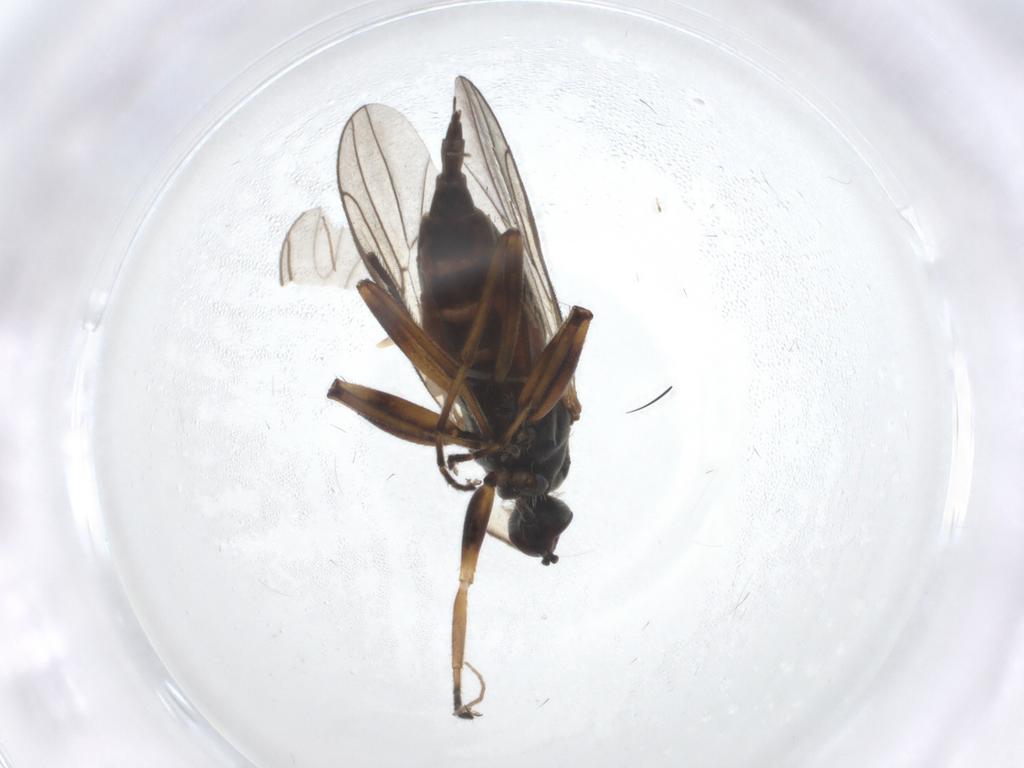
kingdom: Animalia
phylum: Arthropoda
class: Insecta
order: Diptera
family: Hybotidae
